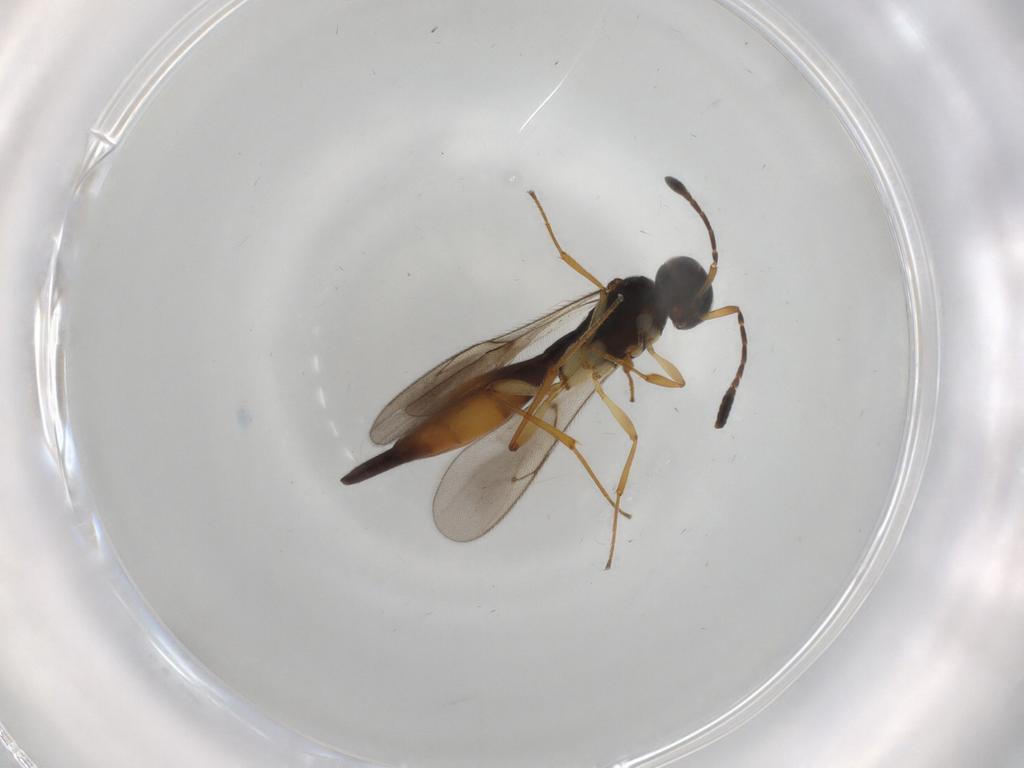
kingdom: Animalia
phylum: Arthropoda
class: Insecta
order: Hymenoptera
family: Scelionidae
